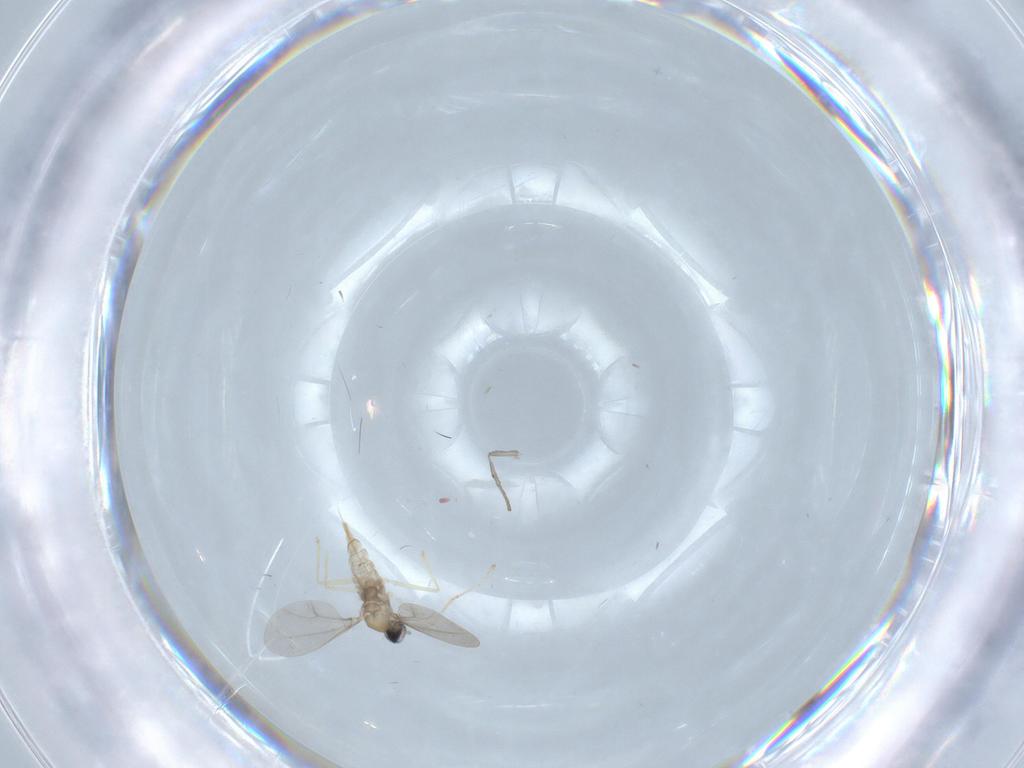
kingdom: Animalia
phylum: Arthropoda
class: Insecta
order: Diptera
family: Cecidomyiidae
